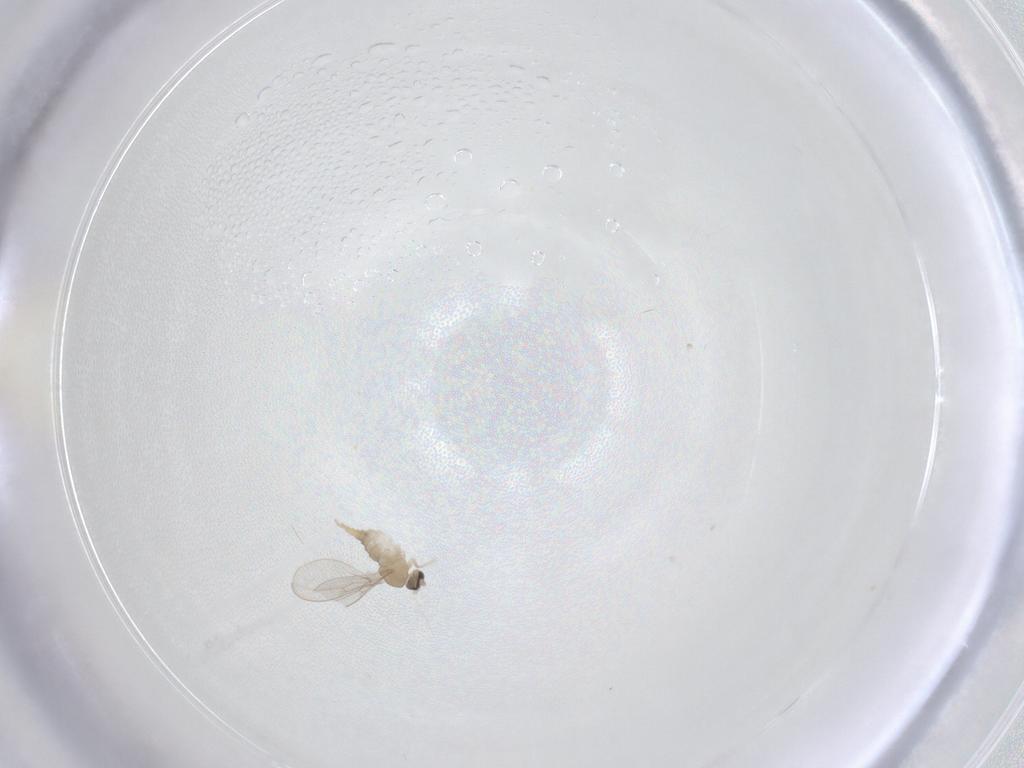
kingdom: Animalia
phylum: Arthropoda
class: Insecta
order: Diptera
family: Cecidomyiidae
